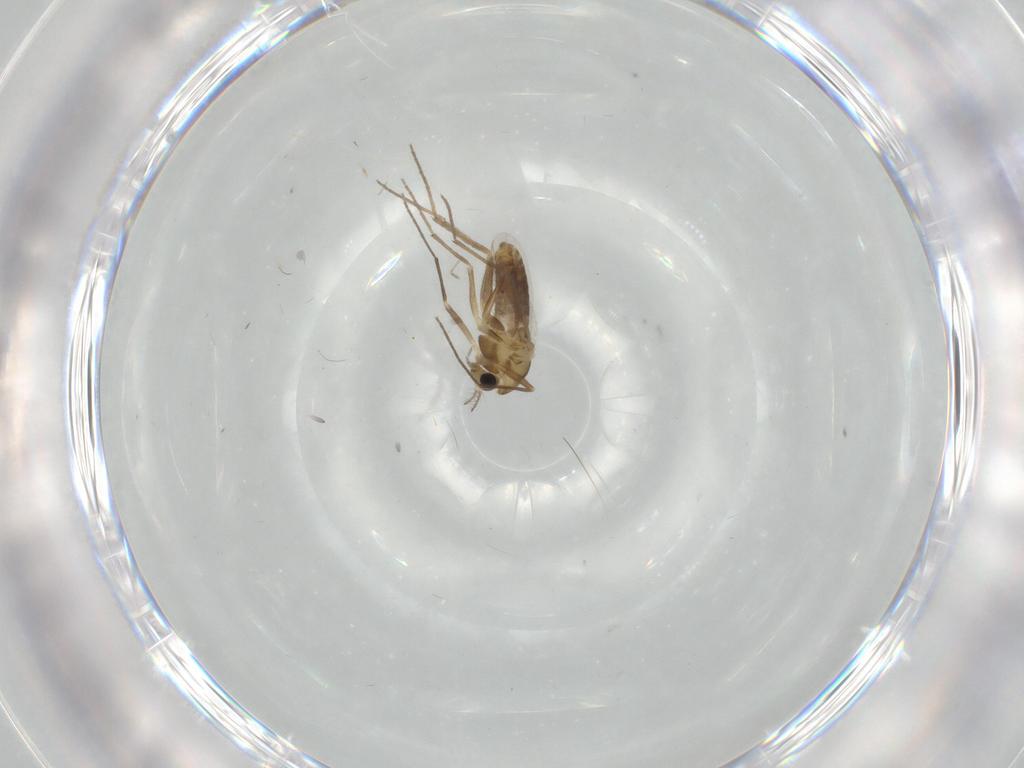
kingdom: Animalia
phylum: Arthropoda
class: Insecta
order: Diptera
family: Chironomidae
